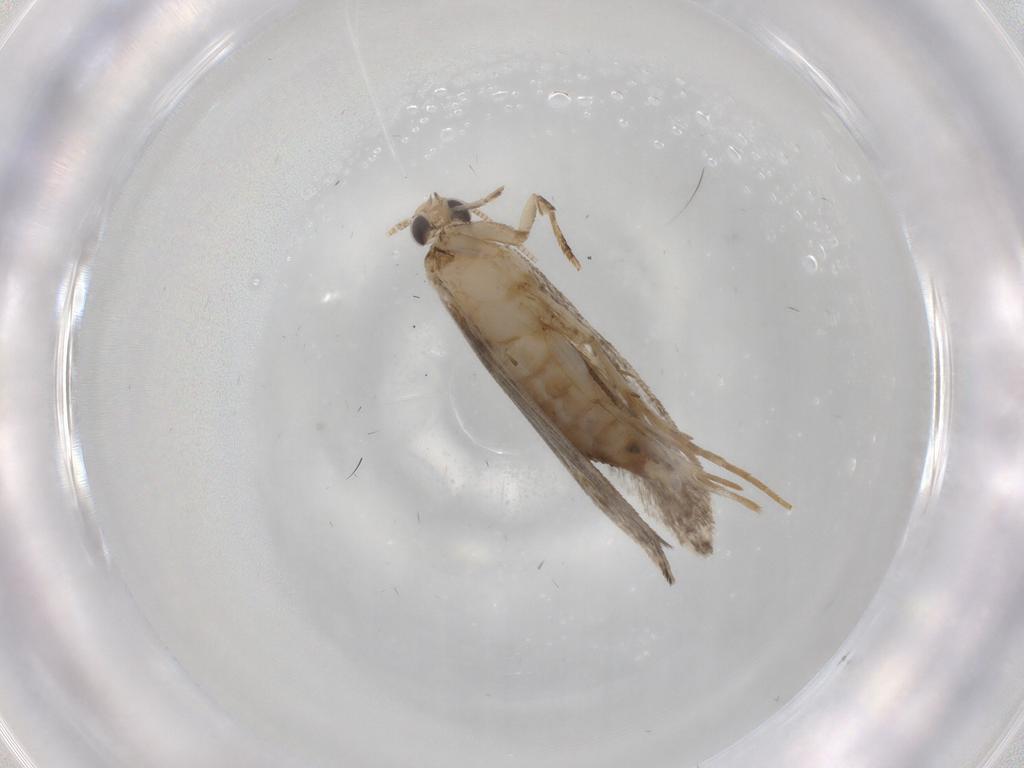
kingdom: Animalia
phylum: Arthropoda
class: Insecta
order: Lepidoptera
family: Tineidae
